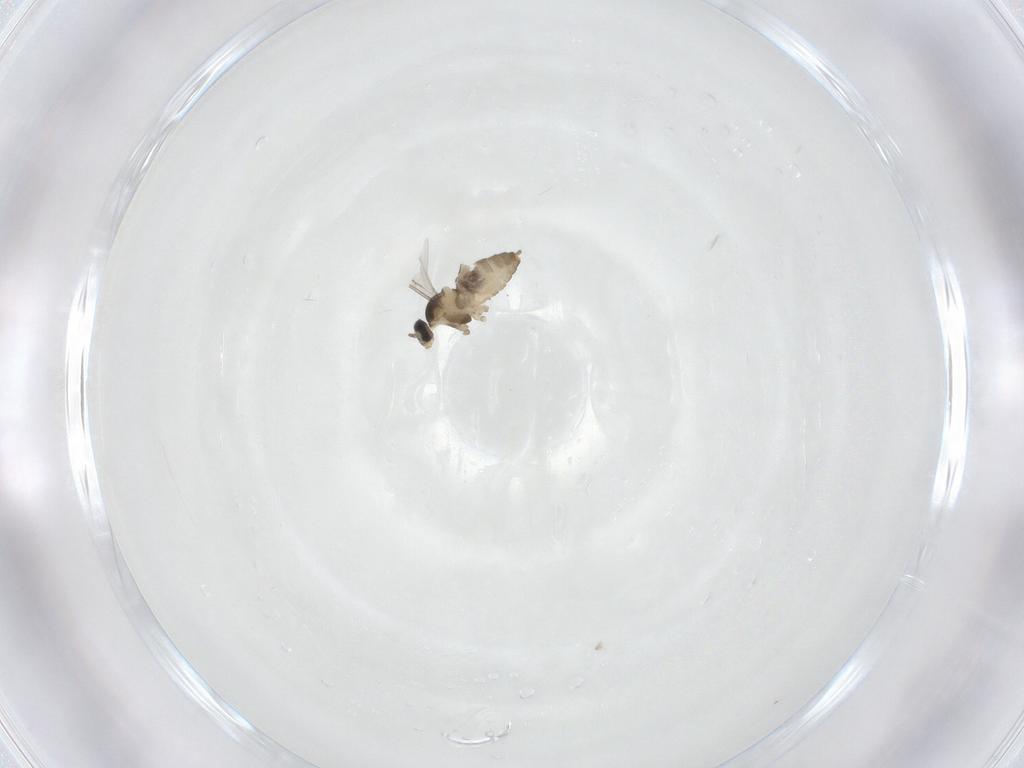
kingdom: Animalia
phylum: Arthropoda
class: Insecta
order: Diptera
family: Cecidomyiidae
